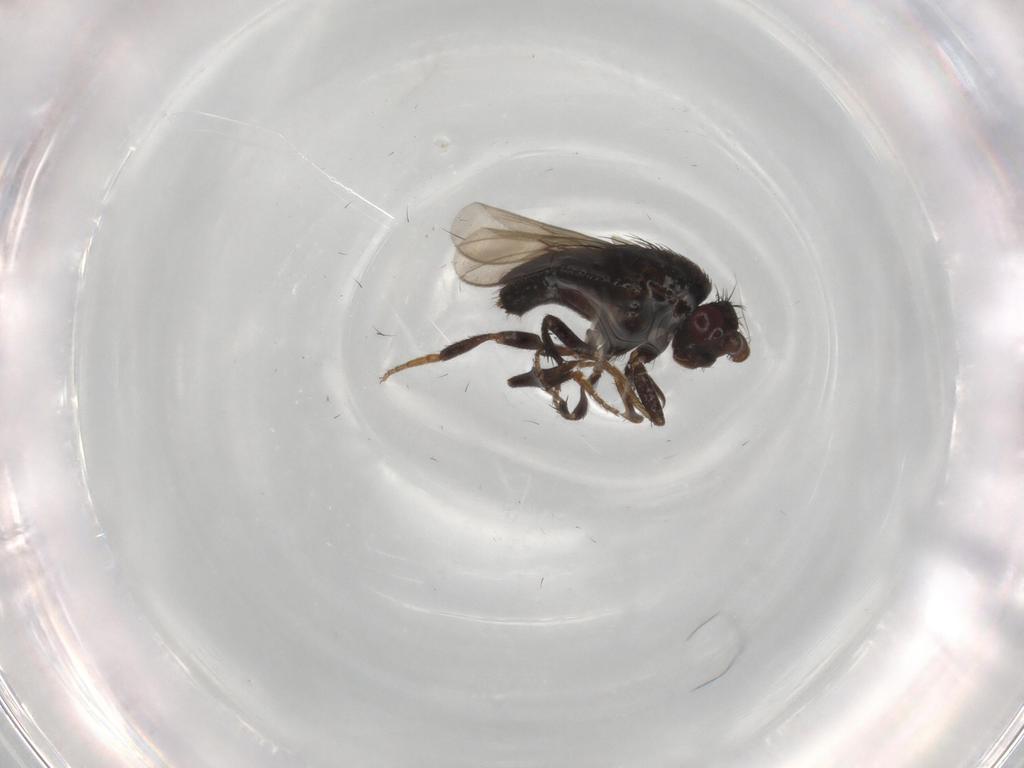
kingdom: Animalia
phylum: Arthropoda
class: Insecta
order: Diptera
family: Sphaeroceridae
